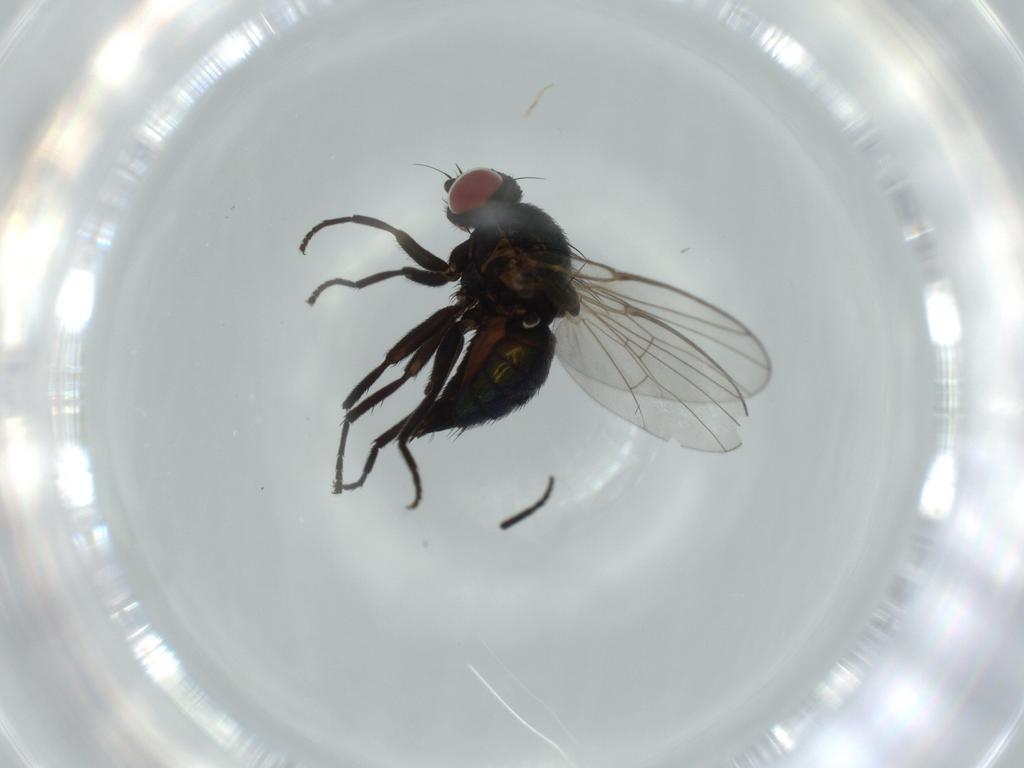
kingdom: Animalia
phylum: Arthropoda
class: Insecta
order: Diptera
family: Agromyzidae
